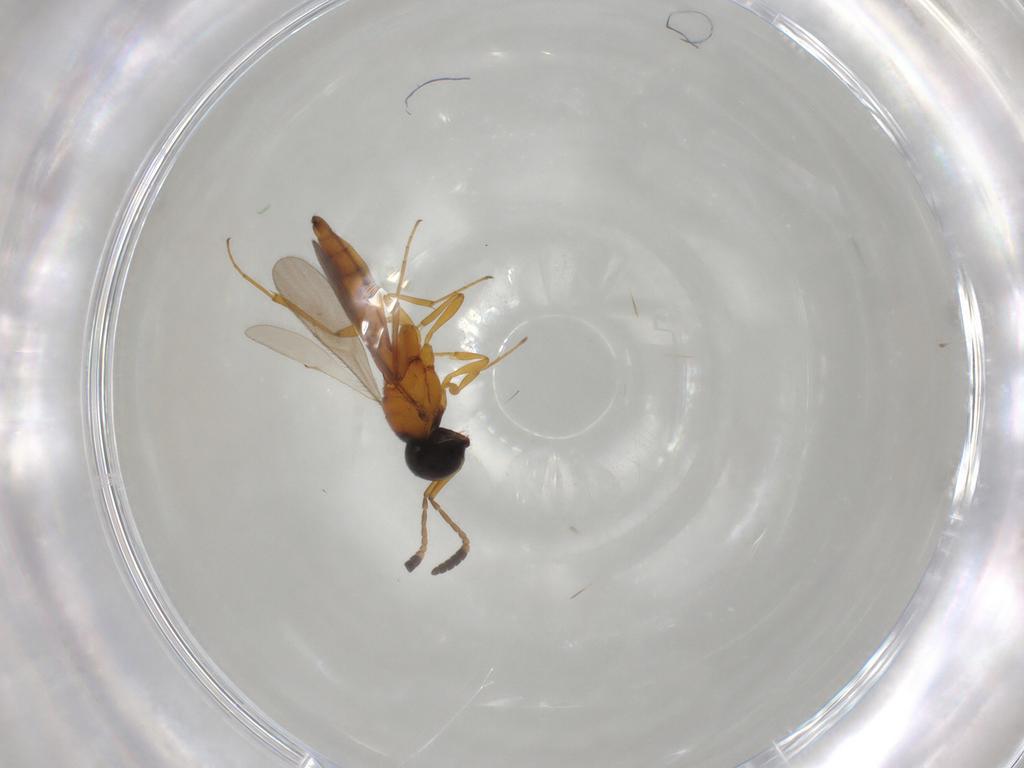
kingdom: Animalia
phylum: Arthropoda
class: Insecta
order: Hymenoptera
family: Scelionidae
